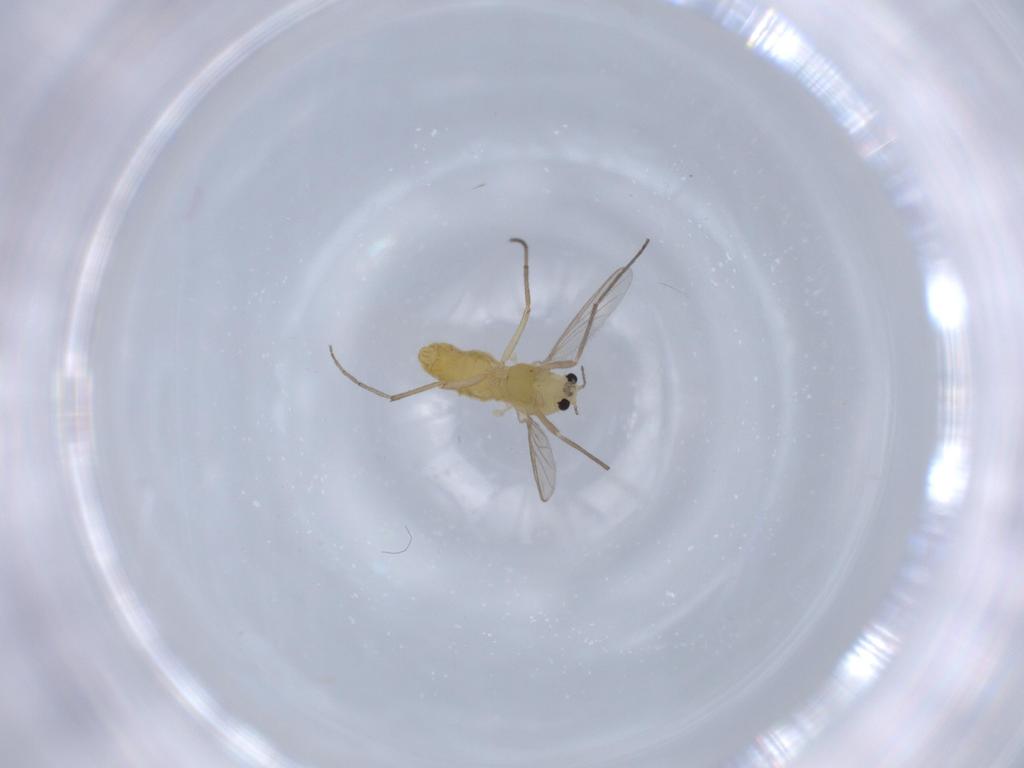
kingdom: Animalia
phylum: Arthropoda
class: Insecta
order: Diptera
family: Chironomidae
